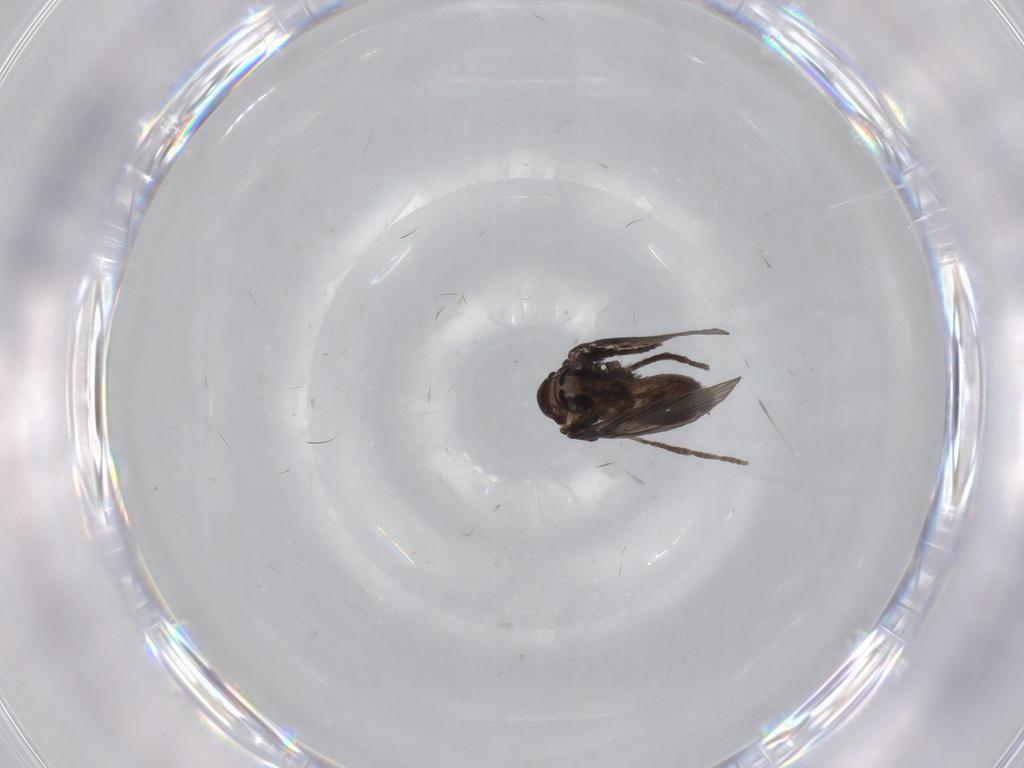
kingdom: Animalia
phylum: Arthropoda
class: Insecta
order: Diptera
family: Psychodidae
